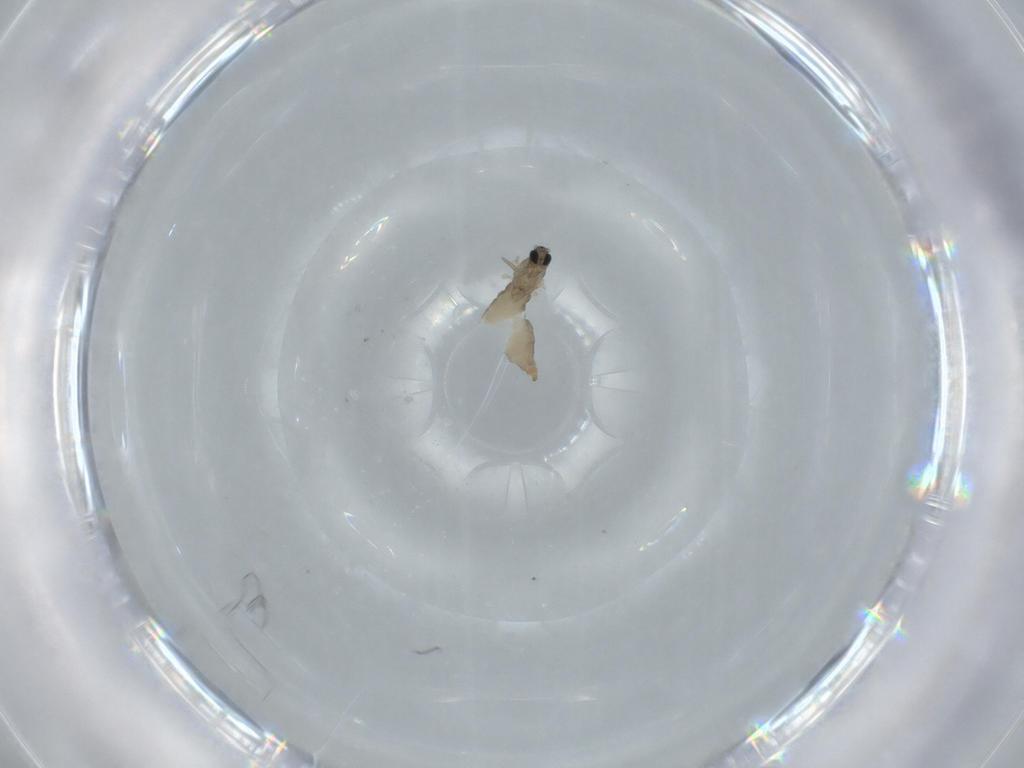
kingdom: Animalia
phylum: Arthropoda
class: Insecta
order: Diptera
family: Cecidomyiidae
